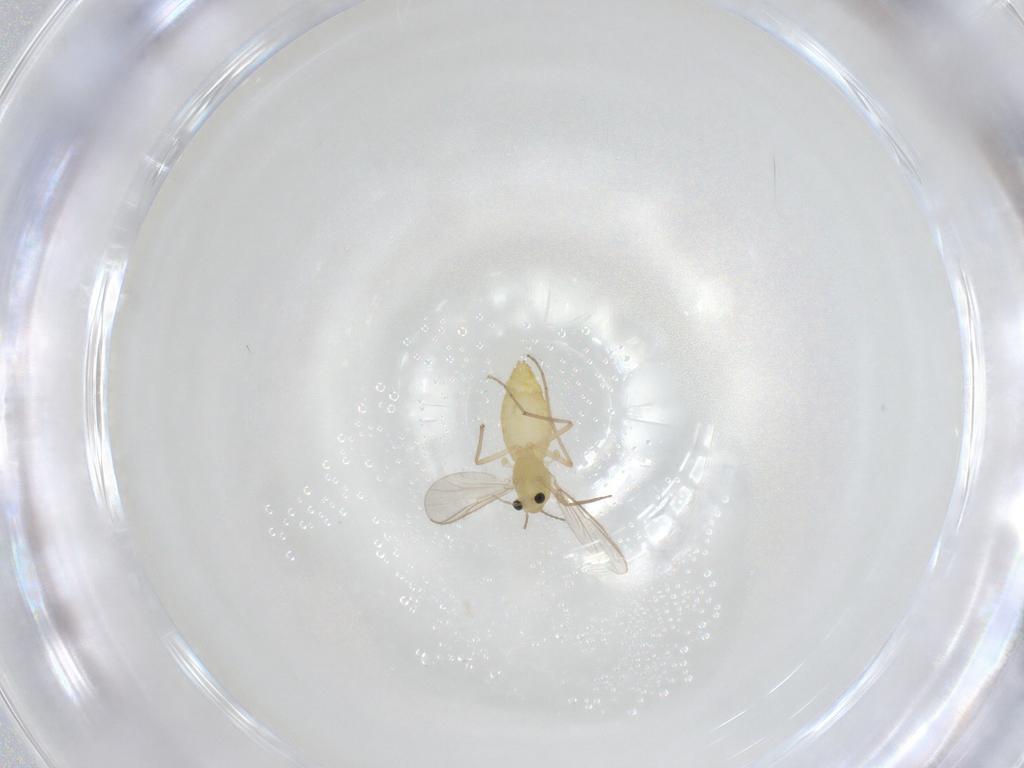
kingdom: Animalia
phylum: Arthropoda
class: Insecta
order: Diptera
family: Chironomidae
